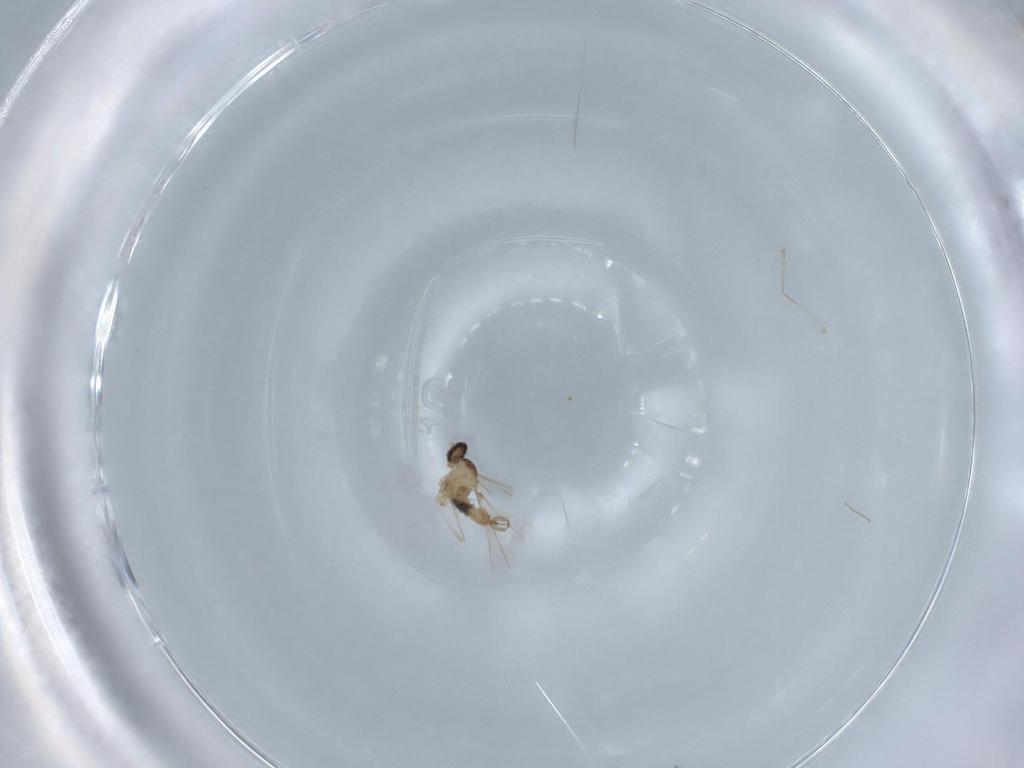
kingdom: Animalia
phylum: Arthropoda
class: Insecta
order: Diptera
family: Cecidomyiidae
